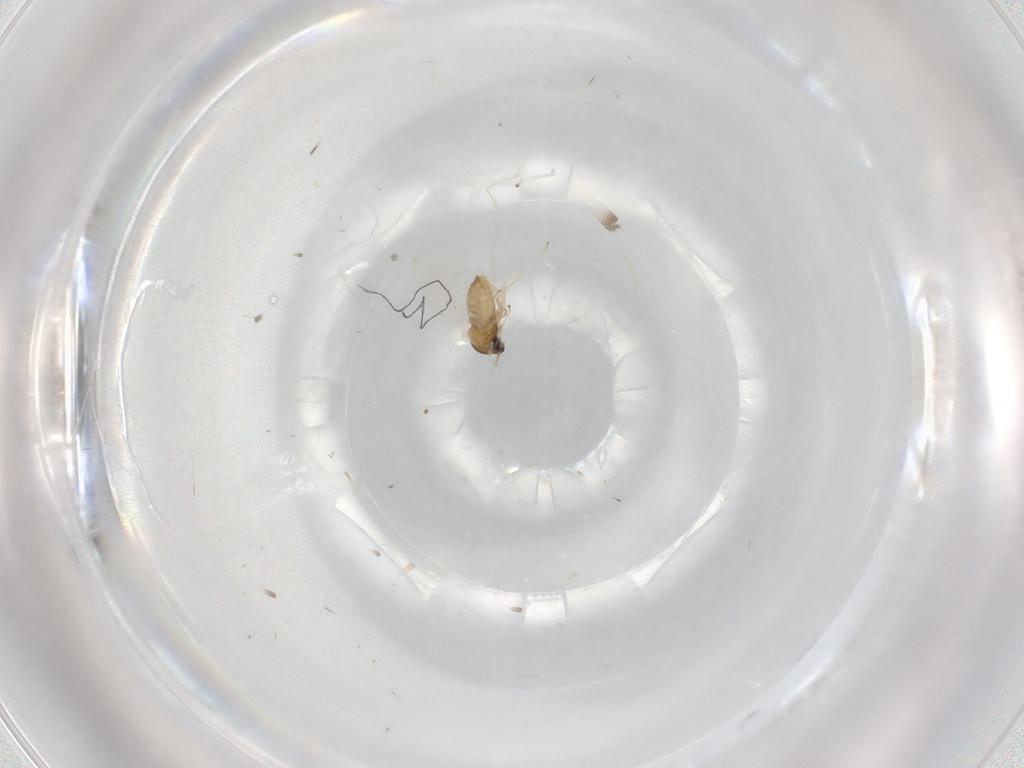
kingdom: Animalia
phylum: Arthropoda
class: Insecta
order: Diptera
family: Cecidomyiidae
